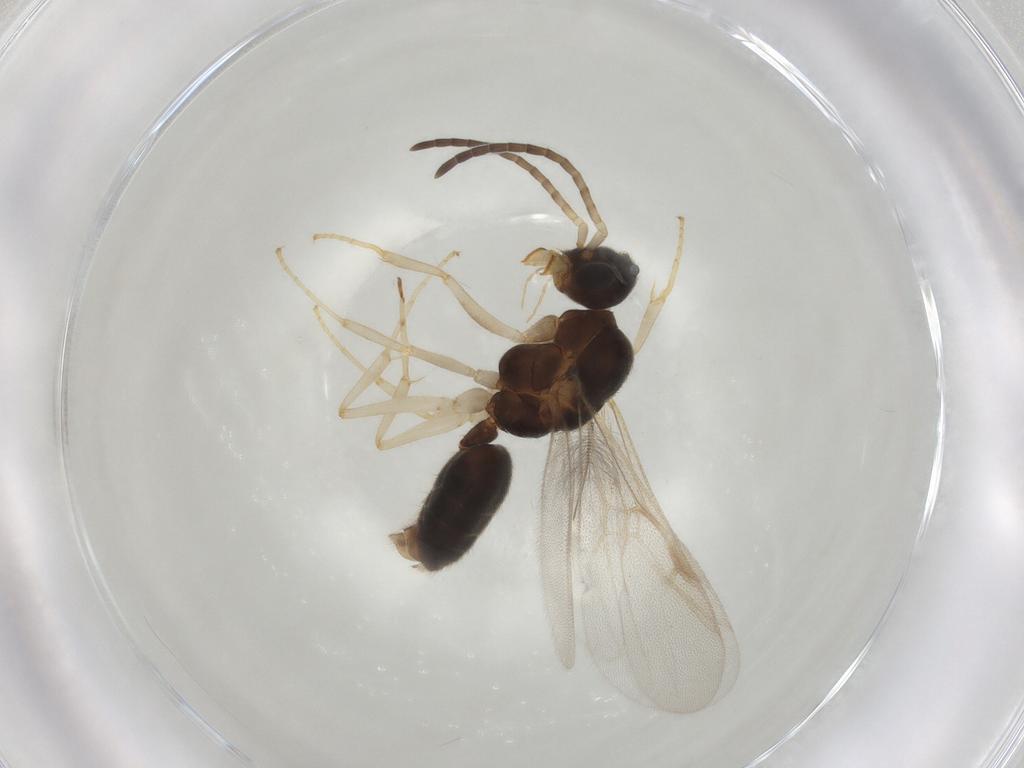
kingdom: Animalia
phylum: Arthropoda
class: Insecta
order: Hymenoptera
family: Formicidae
